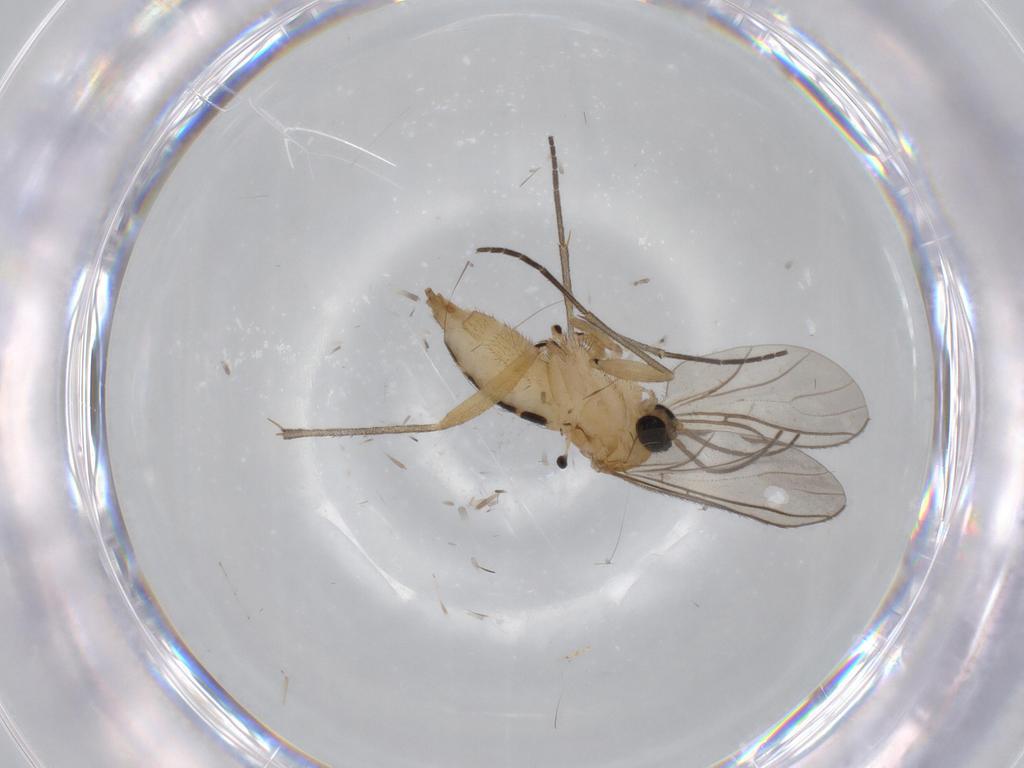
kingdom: Animalia
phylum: Arthropoda
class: Insecta
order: Diptera
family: Sciaridae
